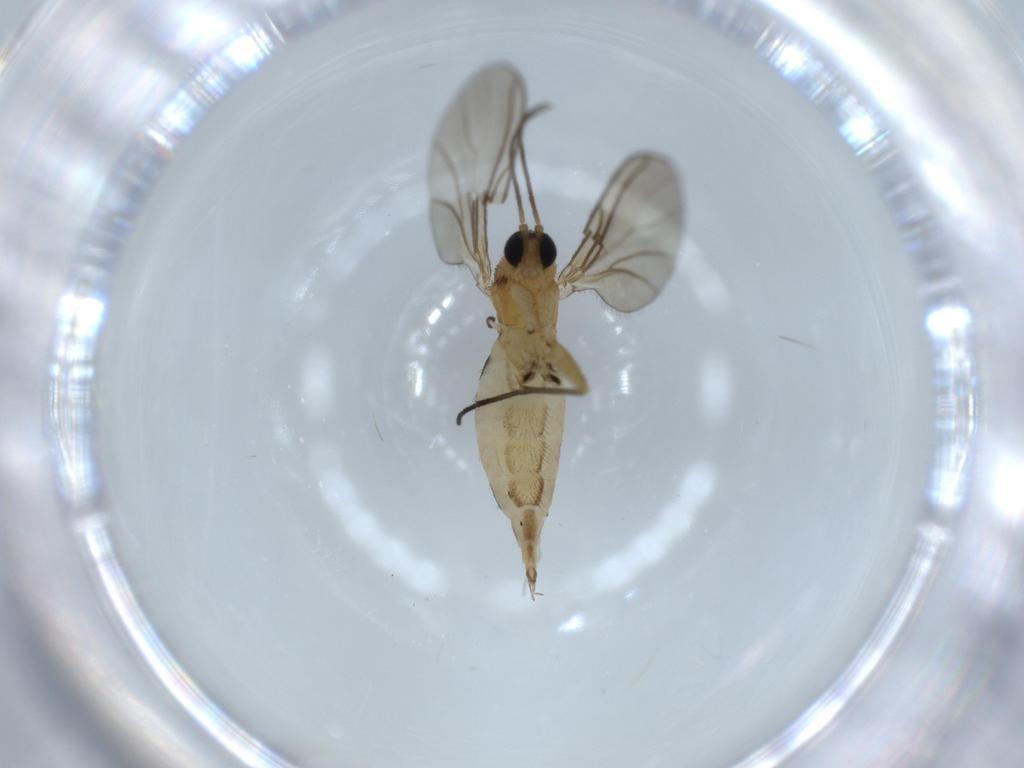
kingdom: Animalia
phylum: Arthropoda
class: Insecta
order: Diptera
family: Sciaridae
